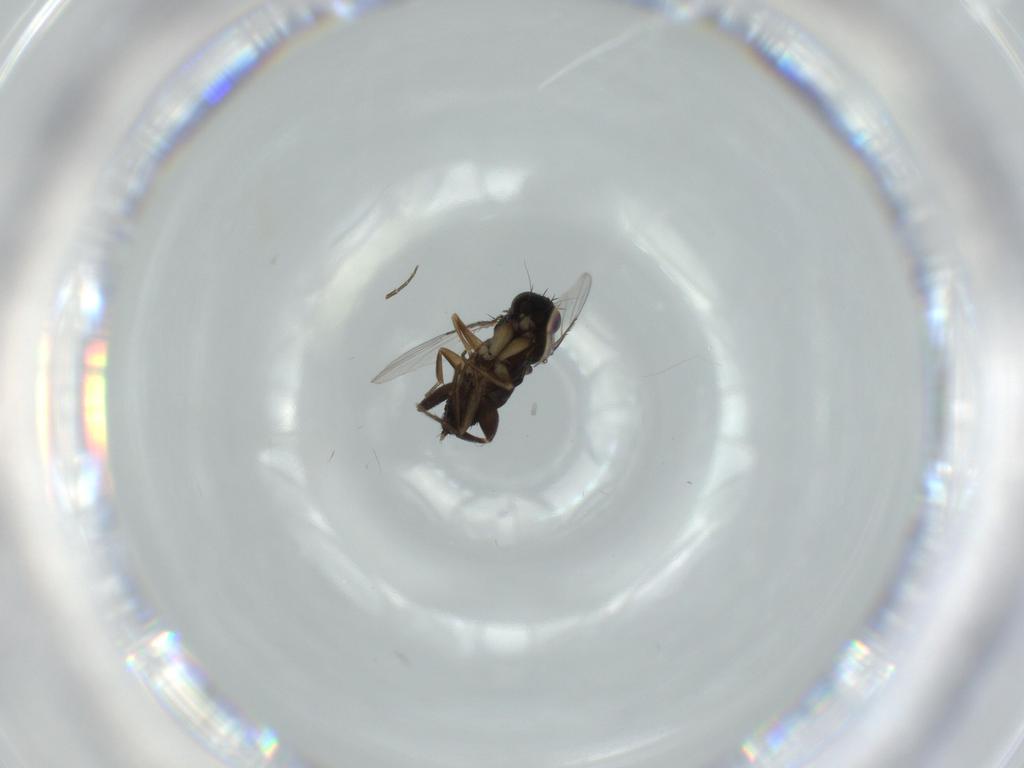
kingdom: Animalia
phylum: Arthropoda
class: Insecta
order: Diptera
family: Phoridae
